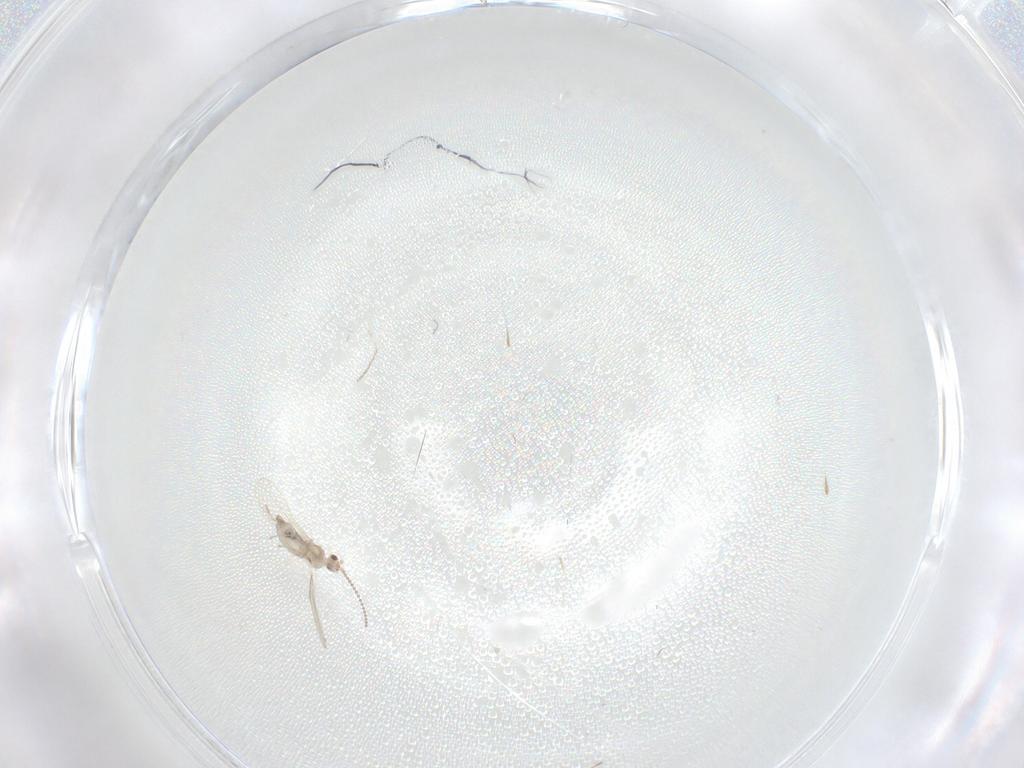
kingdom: Animalia
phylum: Arthropoda
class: Insecta
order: Diptera
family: Cecidomyiidae
